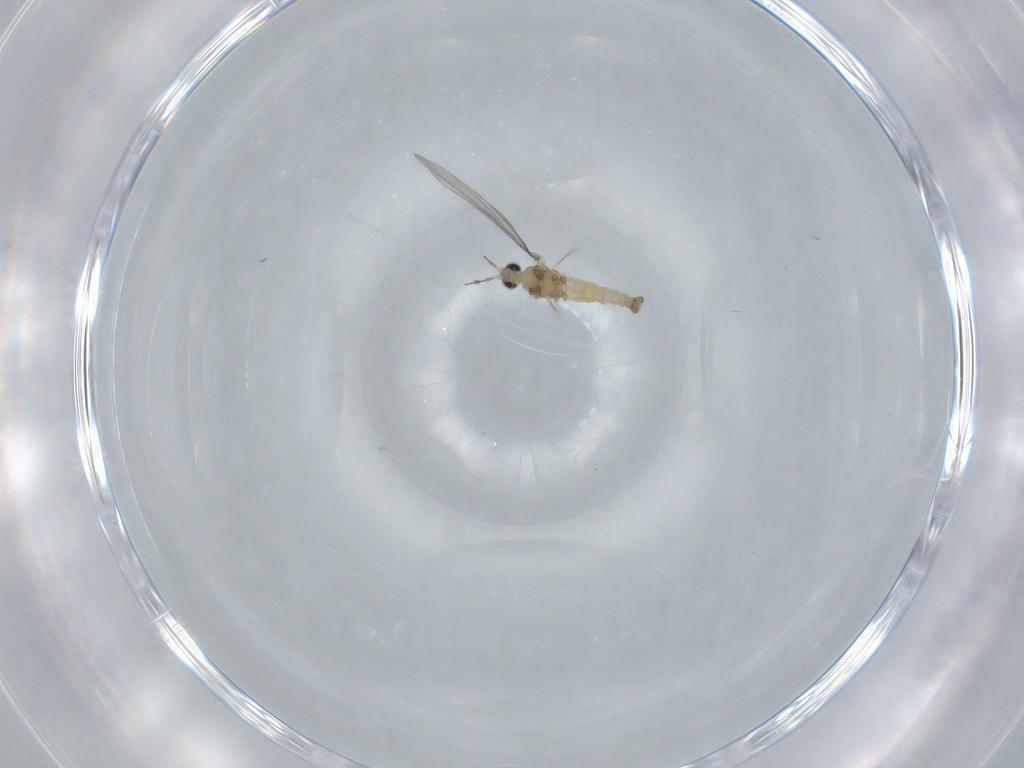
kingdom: Animalia
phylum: Arthropoda
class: Insecta
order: Diptera
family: Cecidomyiidae
